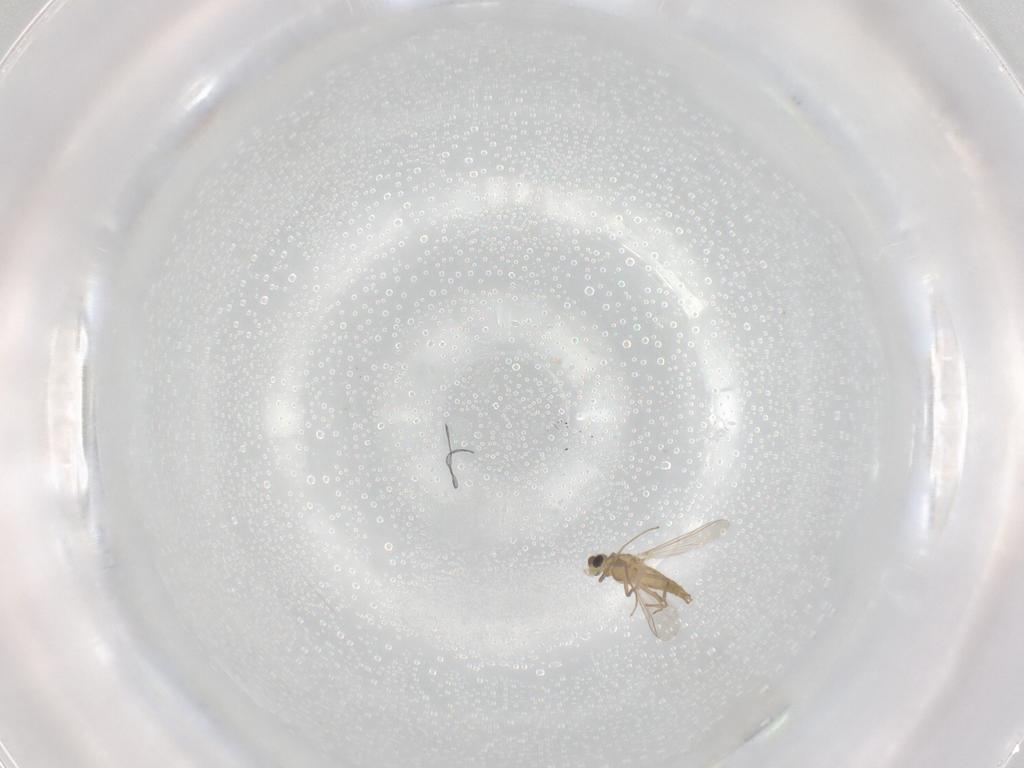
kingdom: Animalia
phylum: Arthropoda
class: Insecta
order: Diptera
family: Chironomidae
